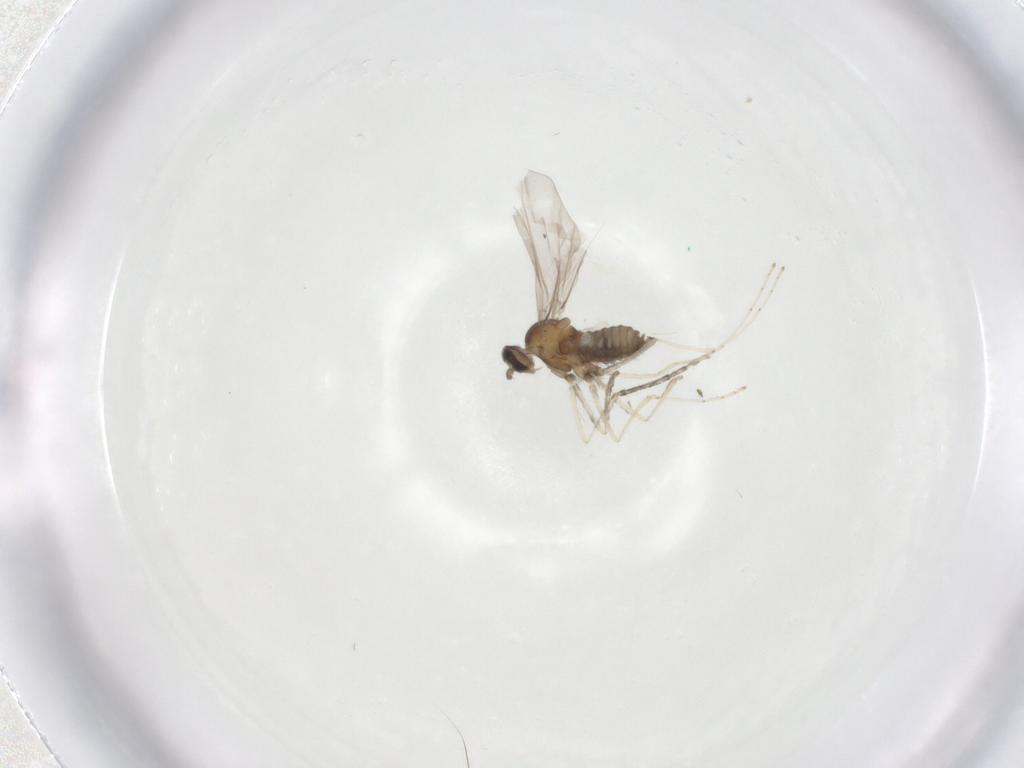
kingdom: Animalia
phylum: Arthropoda
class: Insecta
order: Diptera
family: Cecidomyiidae
